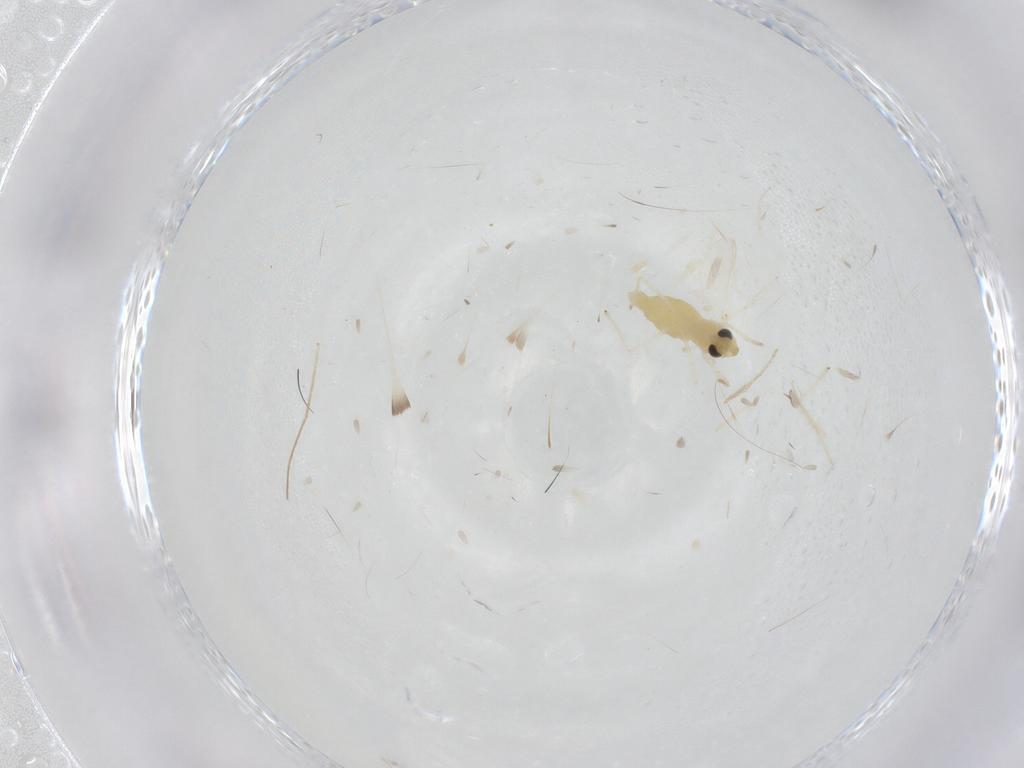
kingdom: Animalia
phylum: Arthropoda
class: Insecta
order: Diptera
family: Chironomidae
